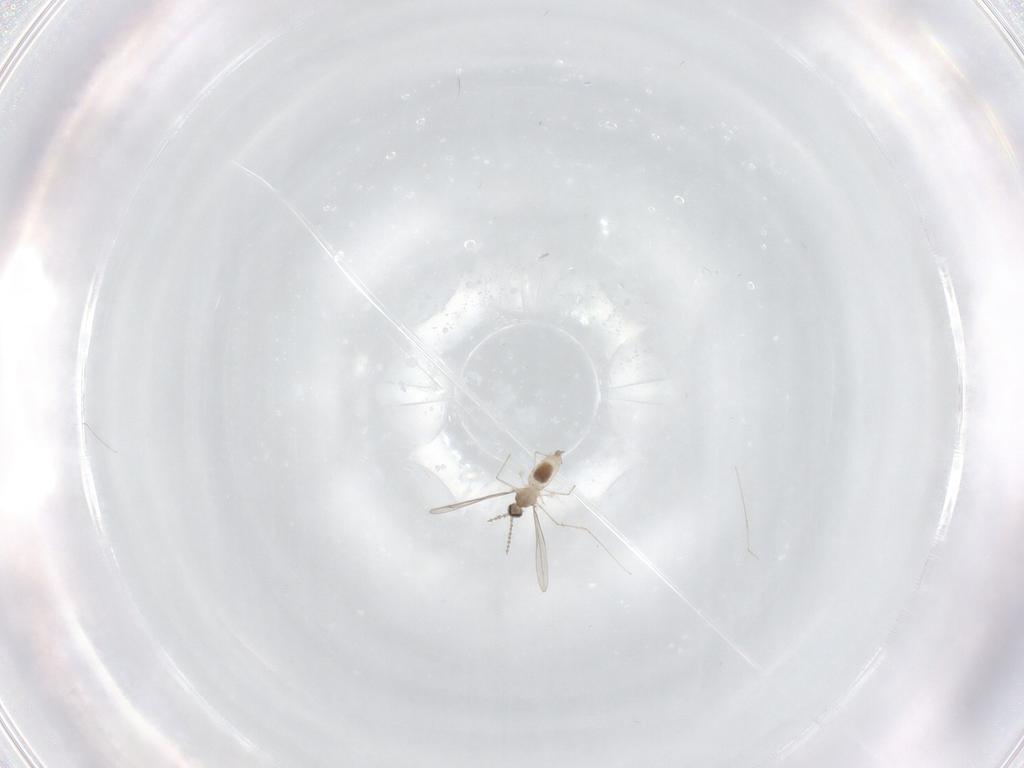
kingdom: Animalia
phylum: Arthropoda
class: Insecta
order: Diptera
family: Cecidomyiidae
